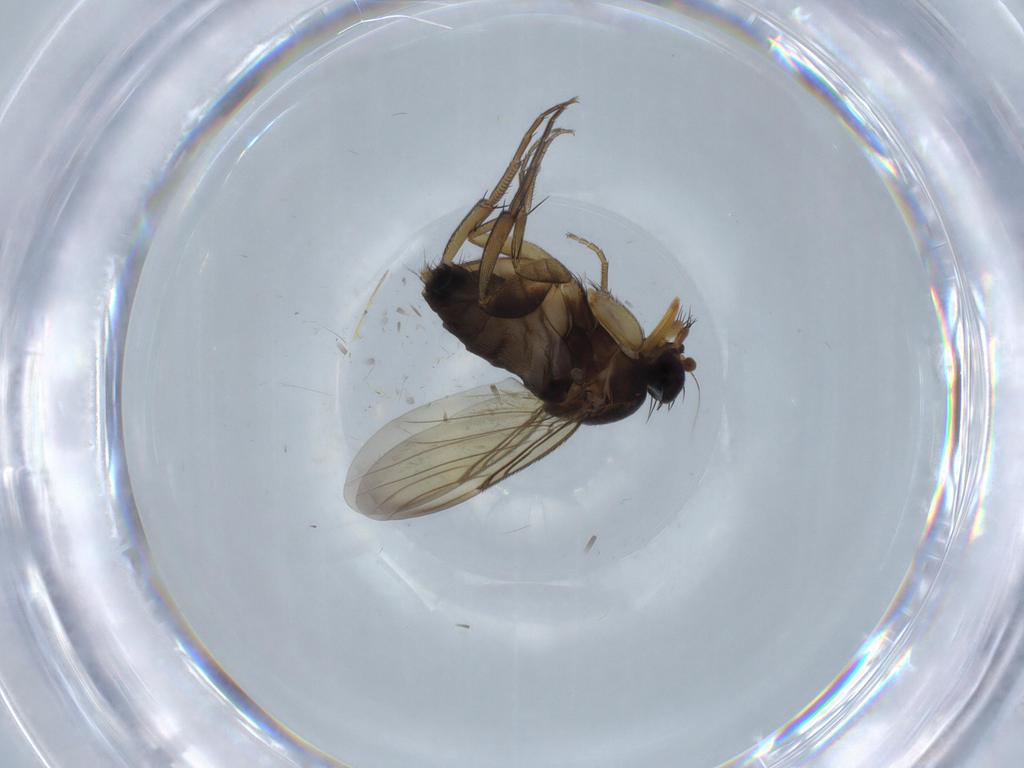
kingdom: Animalia
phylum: Arthropoda
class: Insecta
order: Diptera
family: Phoridae
